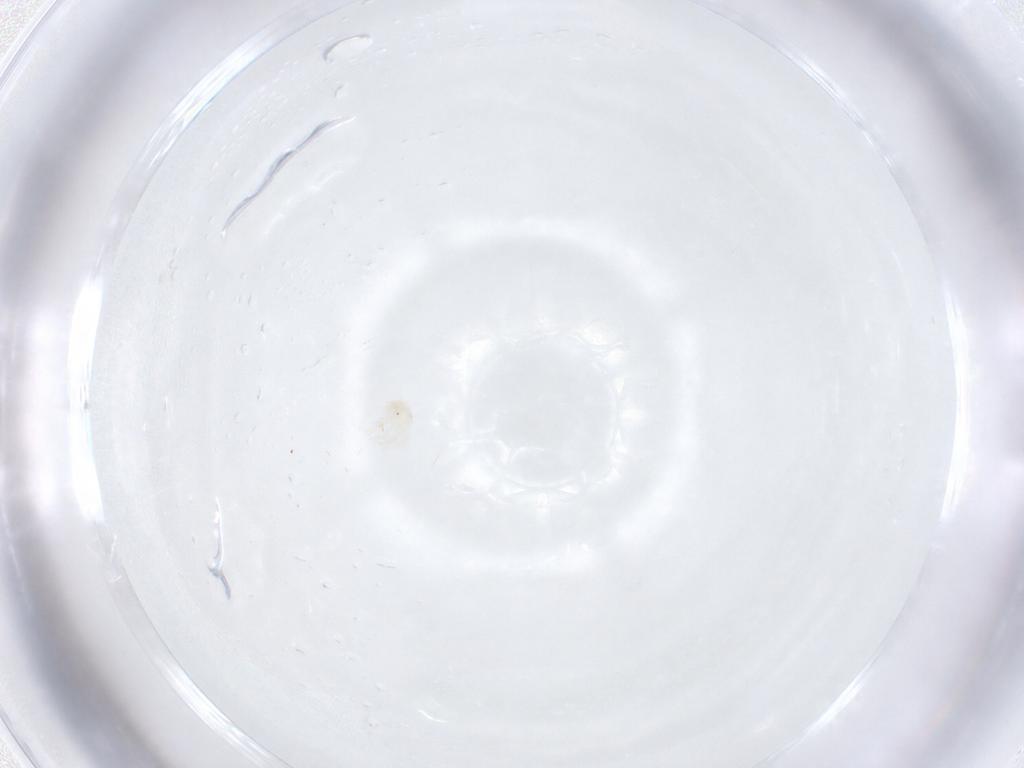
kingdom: Animalia
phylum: Arthropoda
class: Arachnida
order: Trombidiformes
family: Anystidae
